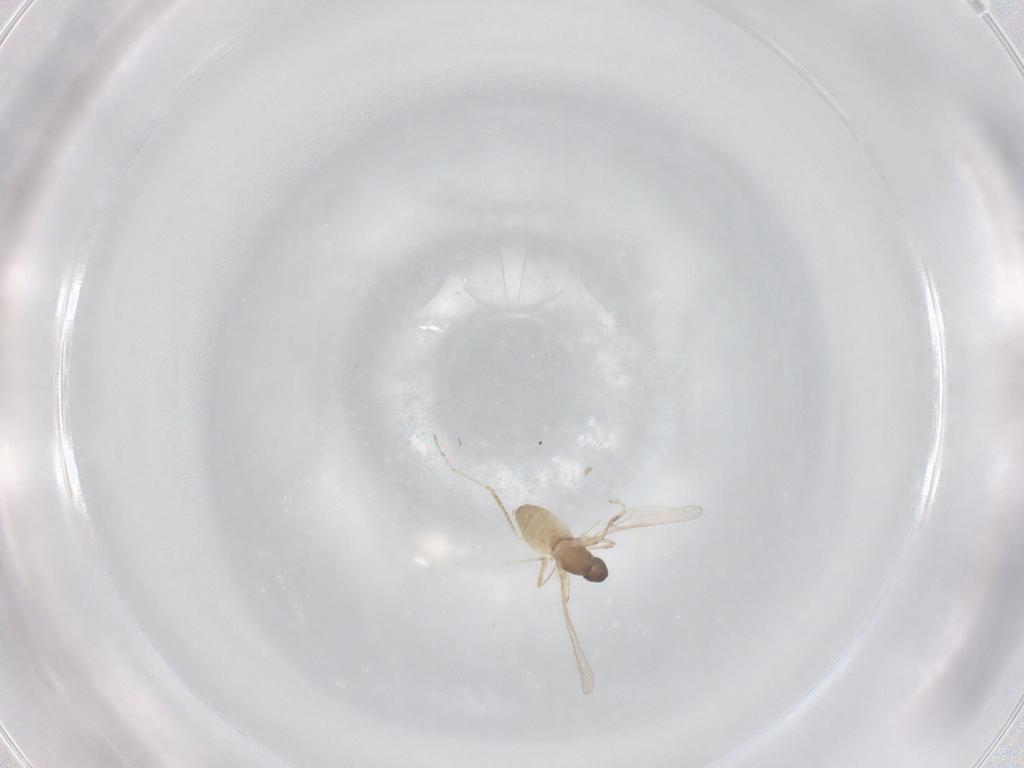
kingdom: Animalia
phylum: Arthropoda
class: Insecta
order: Diptera
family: Cecidomyiidae
